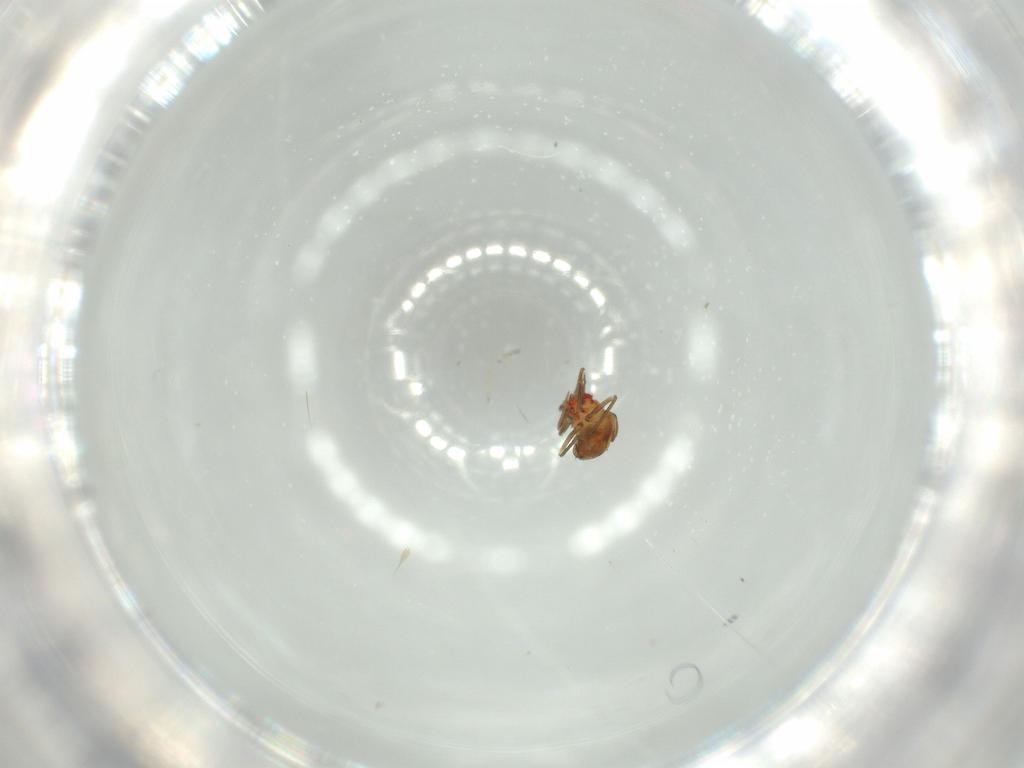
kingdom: Animalia
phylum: Arthropoda
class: Insecta
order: Hemiptera
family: Schizopteridae
